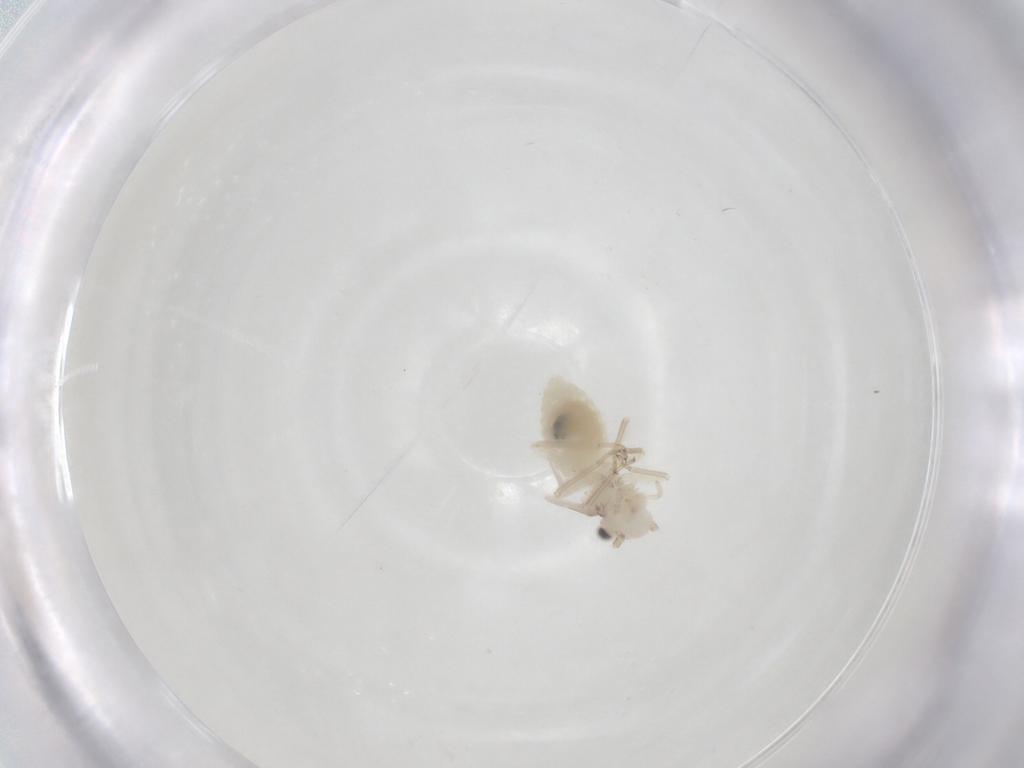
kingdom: Animalia
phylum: Arthropoda
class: Insecta
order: Psocodea
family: Caeciliusidae
